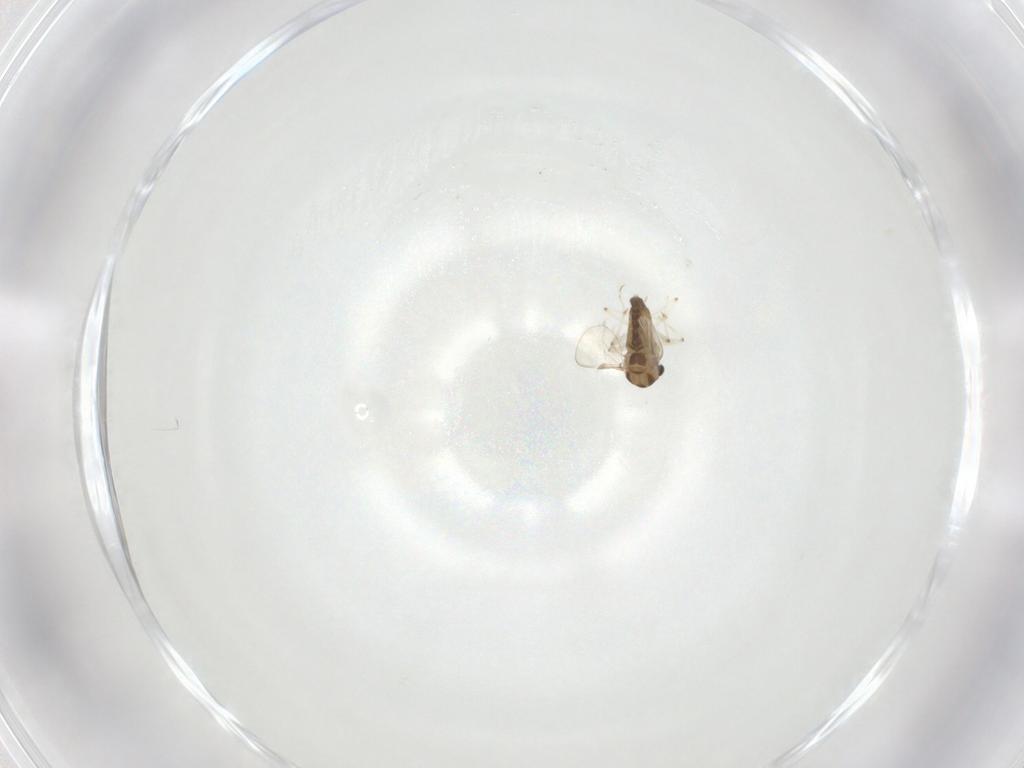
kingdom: Animalia
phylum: Arthropoda
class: Insecta
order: Diptera
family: Chironomidae
